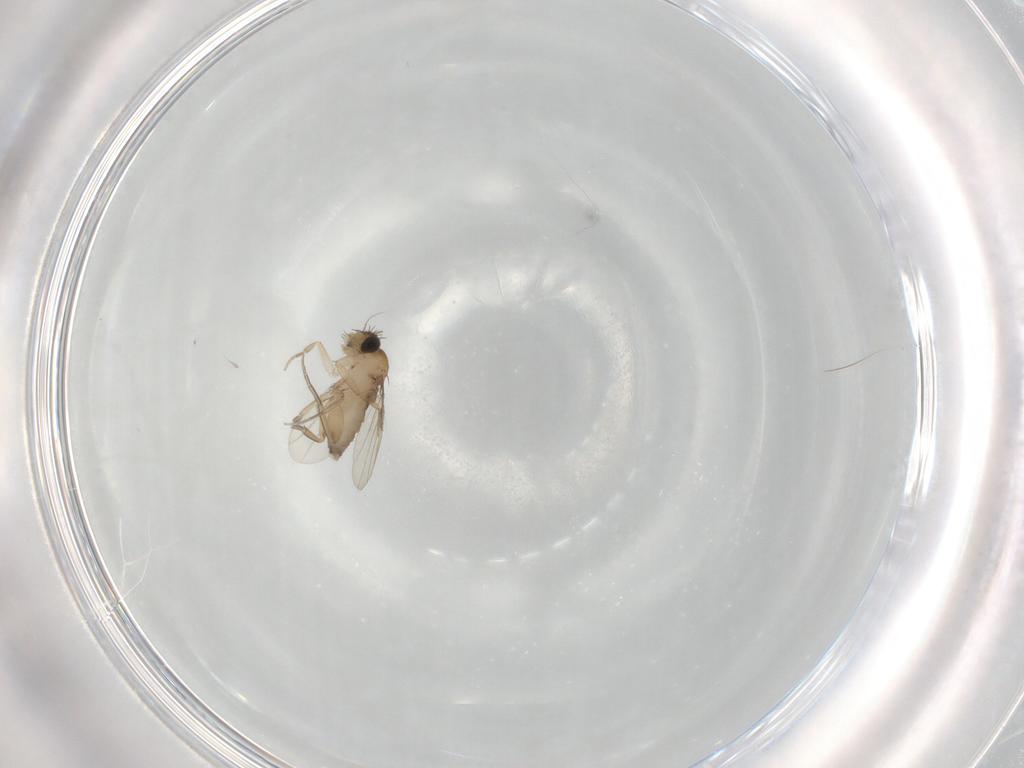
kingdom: Animalia
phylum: Arthropoda
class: Insecta
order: Diptera
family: Phoridae
